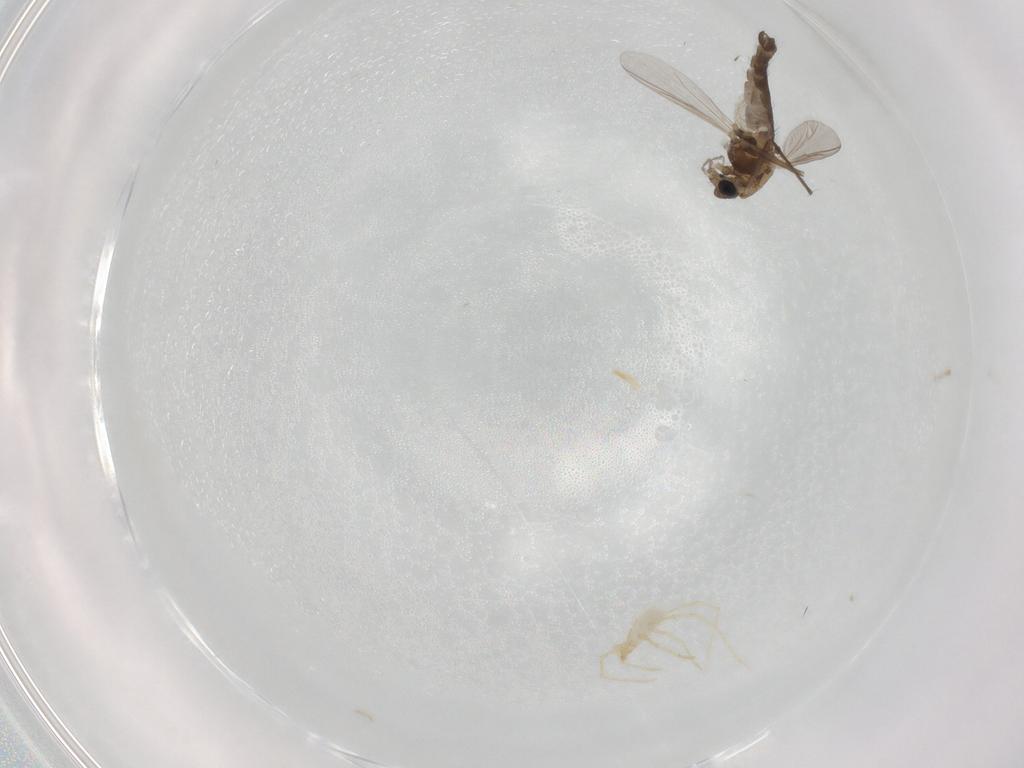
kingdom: Animalia
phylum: Arthropoda
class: Insecta
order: Diptera
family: Chironomidae
